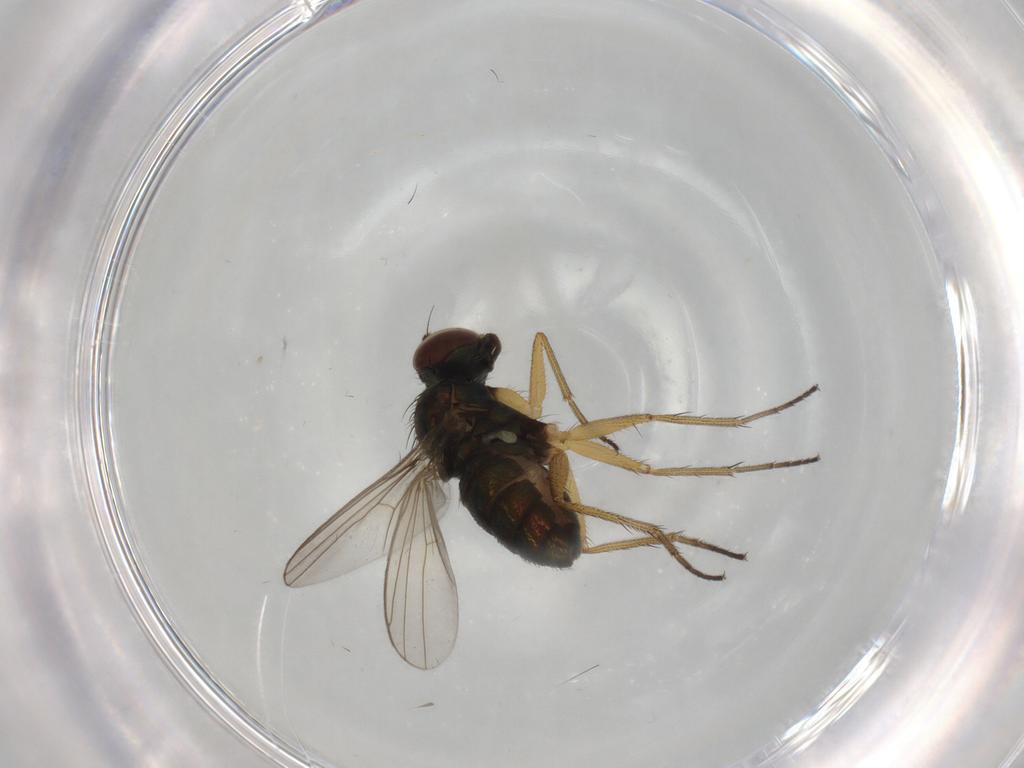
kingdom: Animalia
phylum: Arthropoda
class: Insecta
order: Diptera
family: Dolichopodidae
